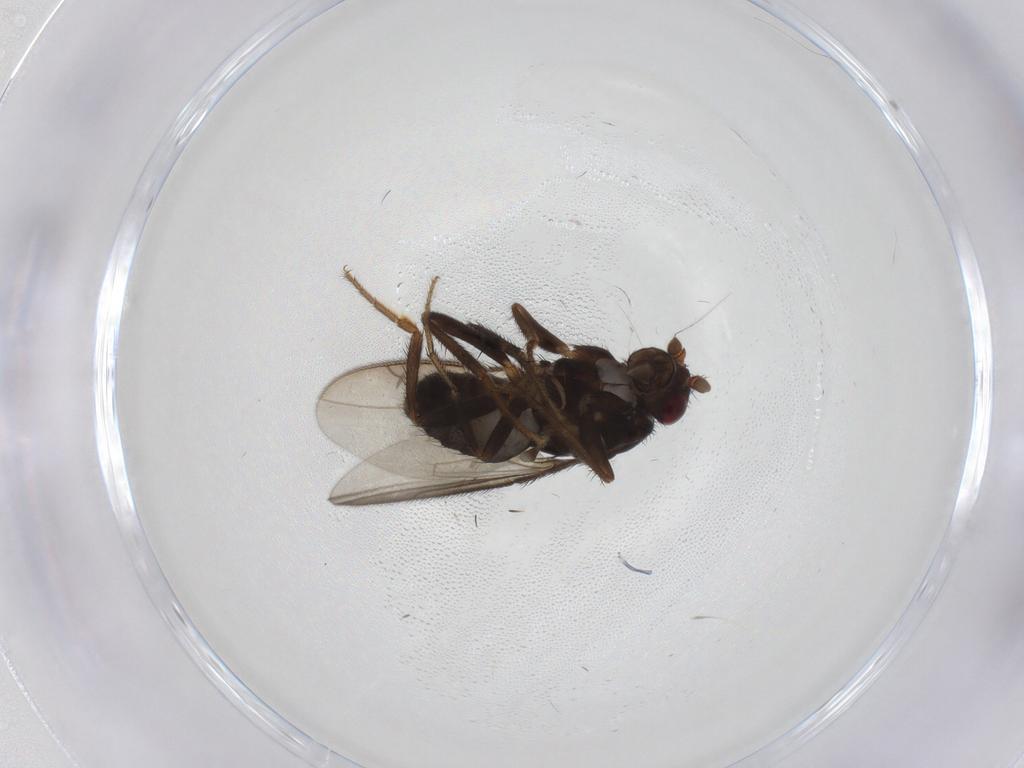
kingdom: Animalia
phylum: Arthropoda
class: Insecta
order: Diptera
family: Sphaeroceridae
